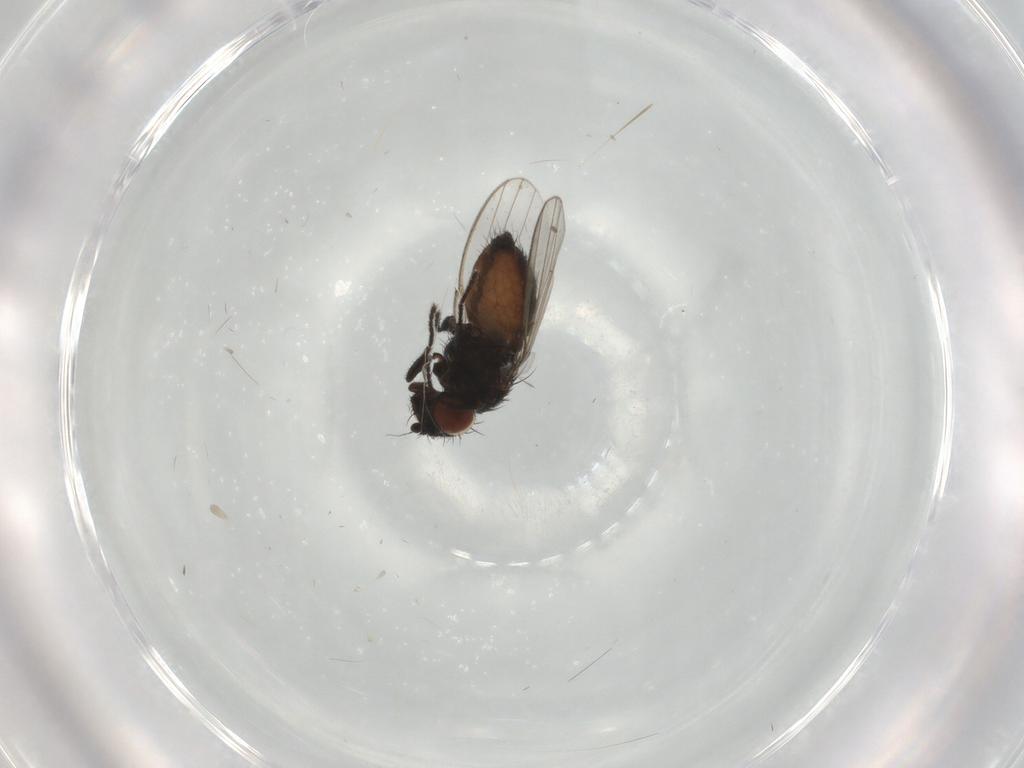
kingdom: Animalia
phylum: Arthropoda
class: Insecta
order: Diptera
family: Milichiidae
